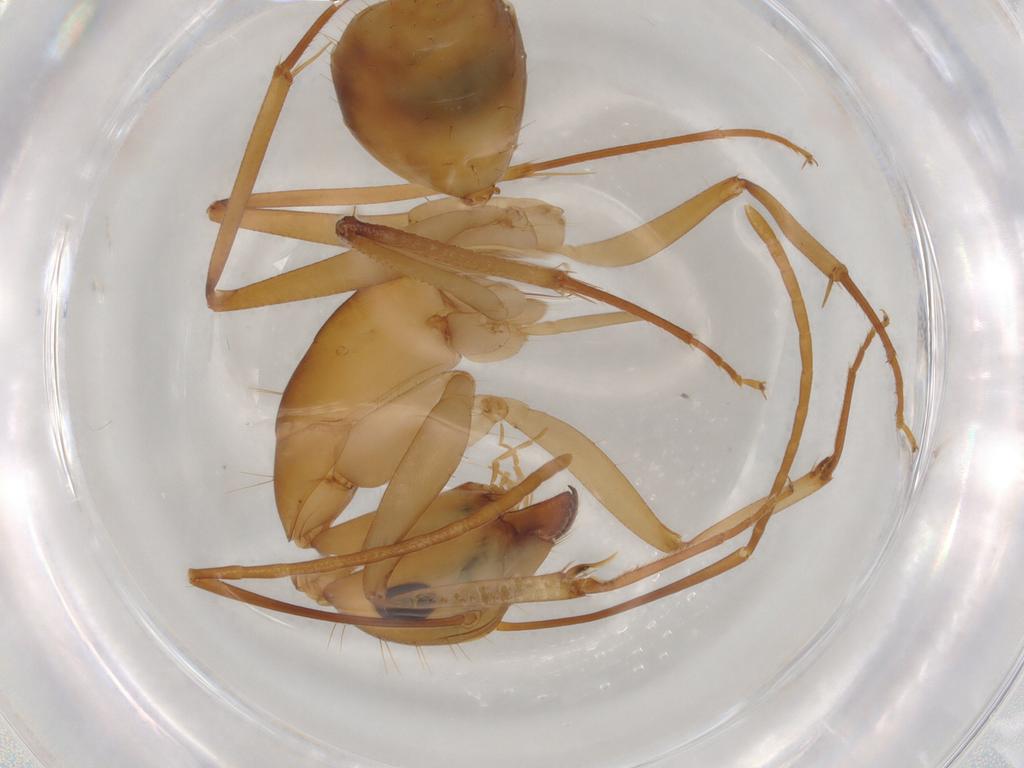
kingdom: Animalia
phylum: Arthropoda
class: Insecta
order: Hymenoptera
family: Formicidae
